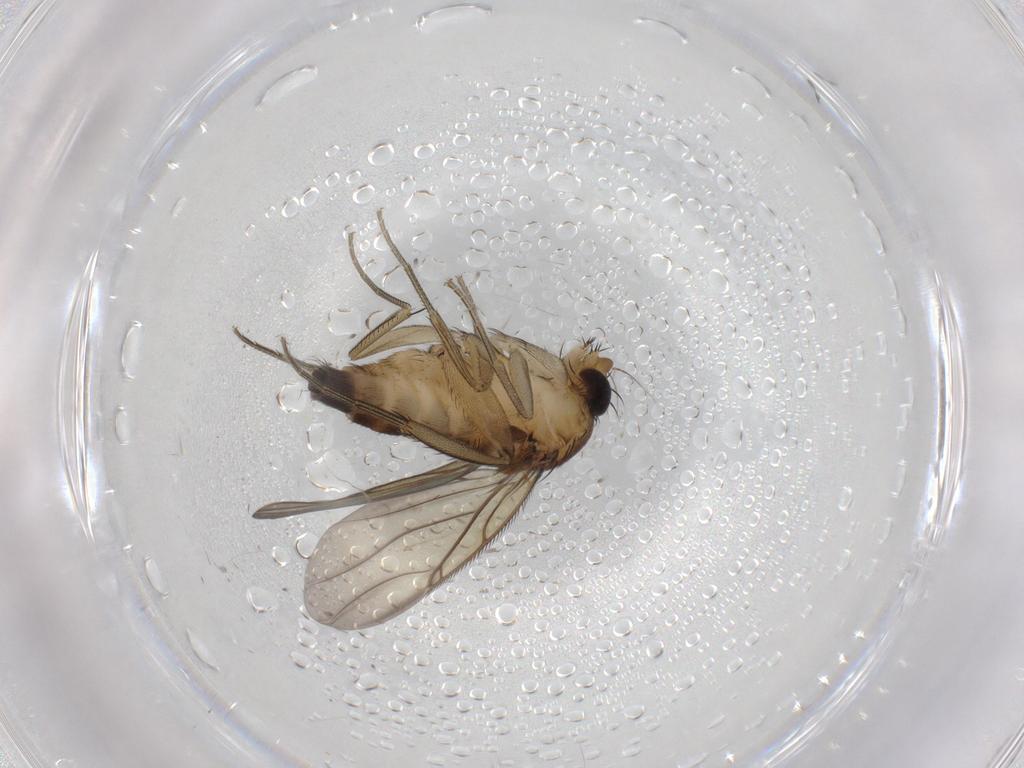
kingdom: Animalia
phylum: Arthropoda
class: Insecta
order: Diptera
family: Phoridae
